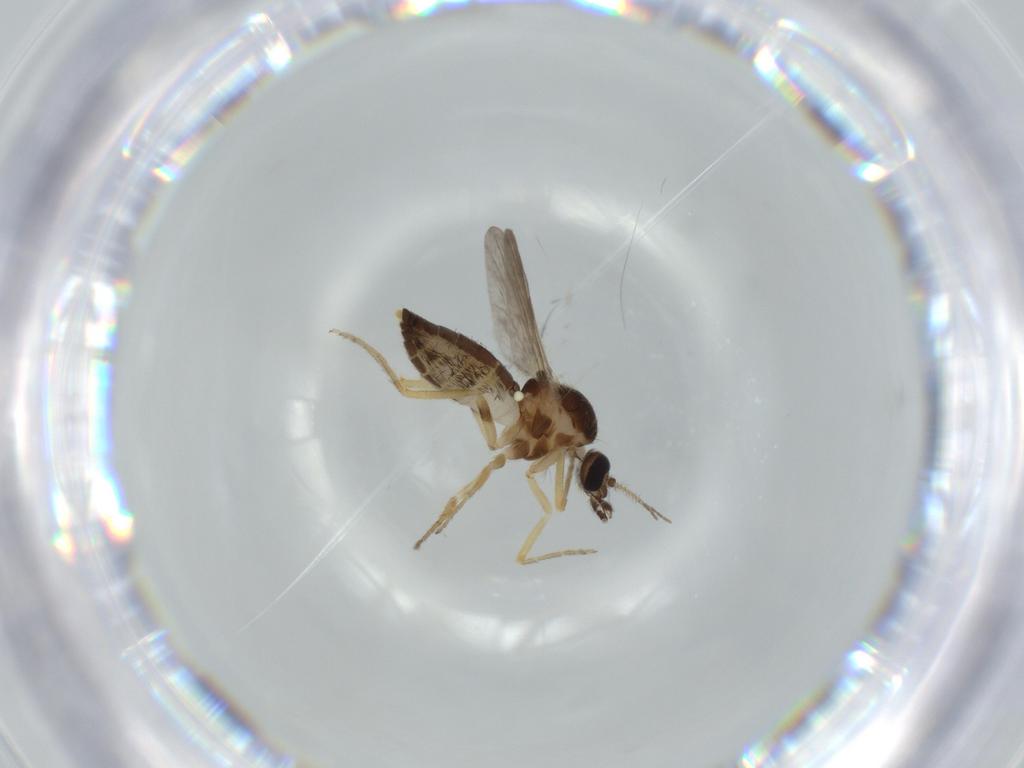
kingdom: Animalia
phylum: Arthropoda
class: Insecta
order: Diptera
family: Ceratopogonidae
